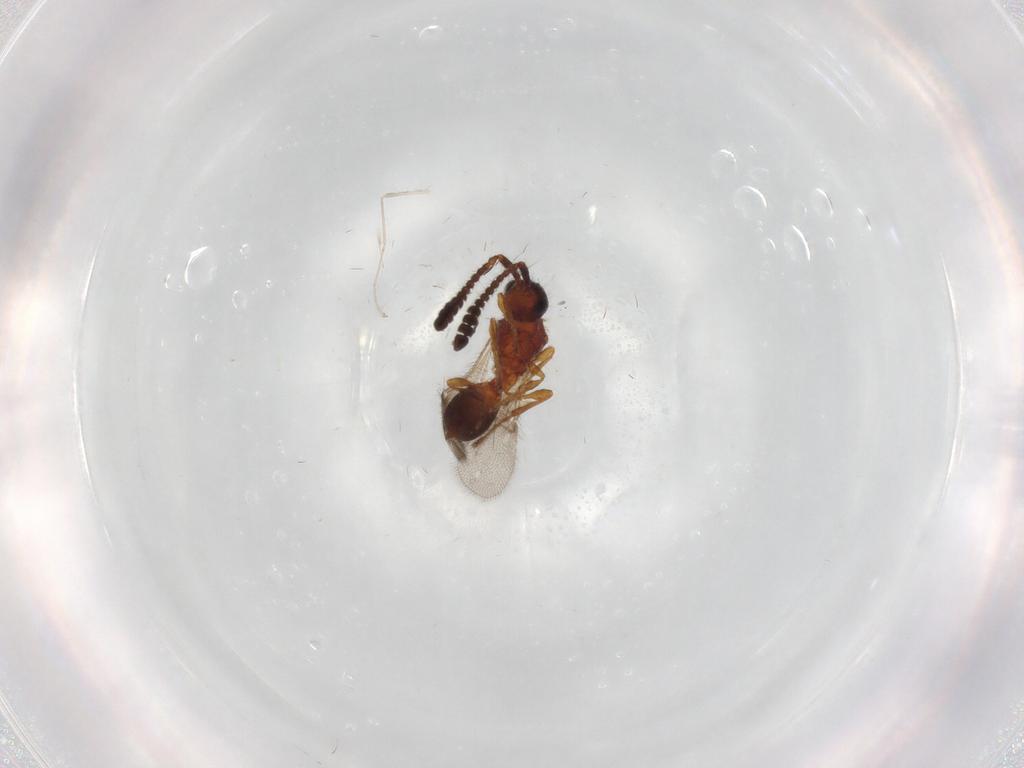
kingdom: Animalia
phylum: Arthropoda
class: Insecta
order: Hymenoptera
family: Diapriidae
